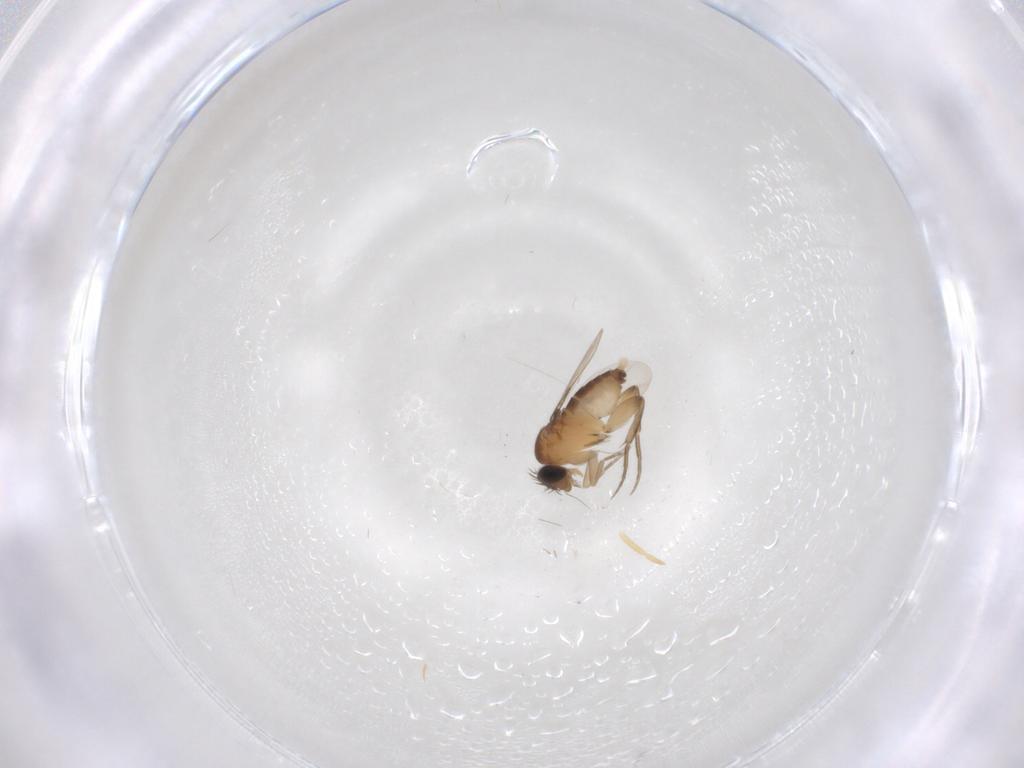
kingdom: Animalia
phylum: Arthropoda
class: Insecta
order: Diptera
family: Phoridae
